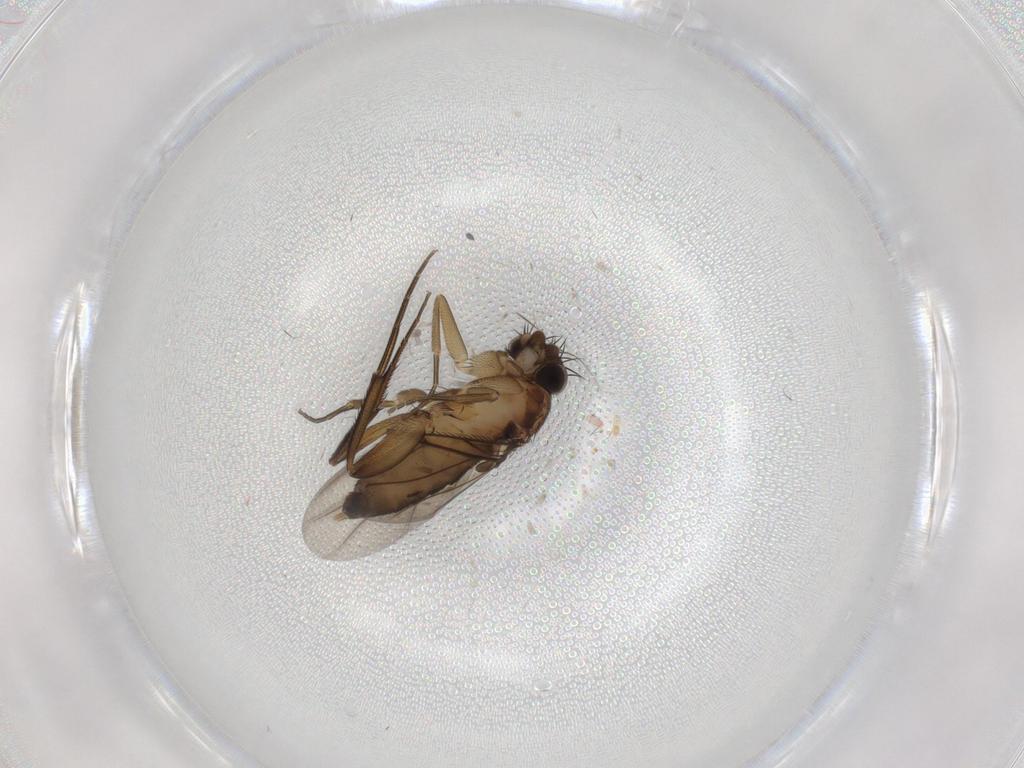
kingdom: Animalia
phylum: Arthropoda
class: Insecta
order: Diptera
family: Phoridae
